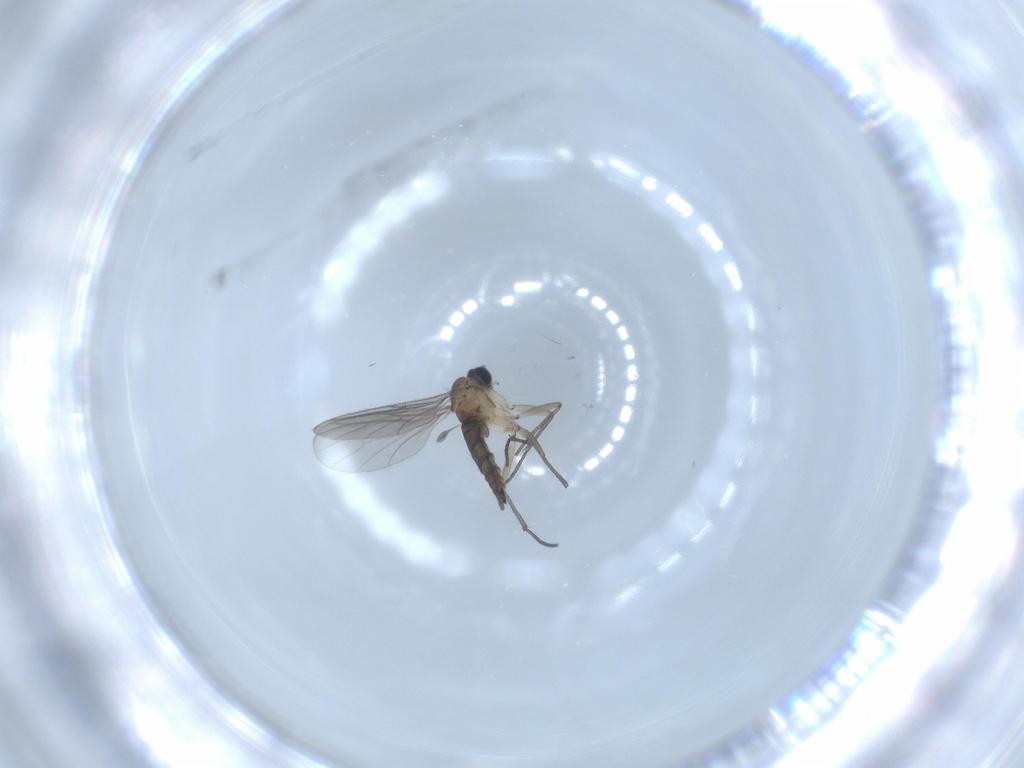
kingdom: Animalia
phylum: Arthropoda
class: Insecta
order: Diptera
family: Sciaridae
